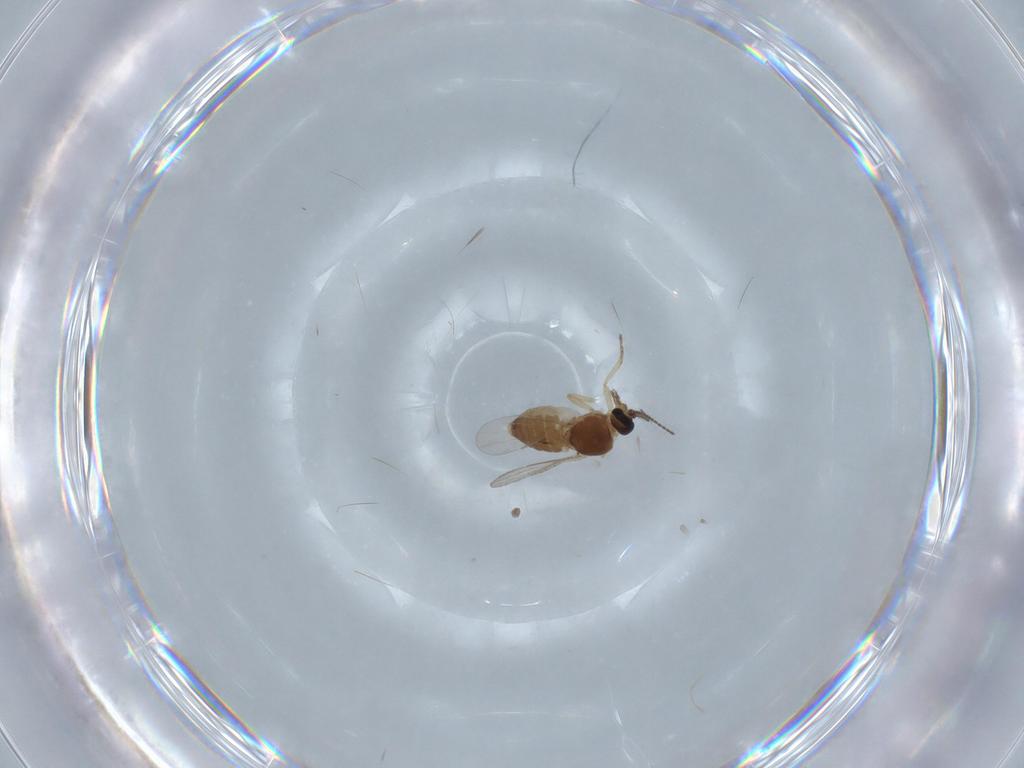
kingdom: Animalia
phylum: Arthropoda
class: Insecta
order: Diptera
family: Ceratopogonidae
